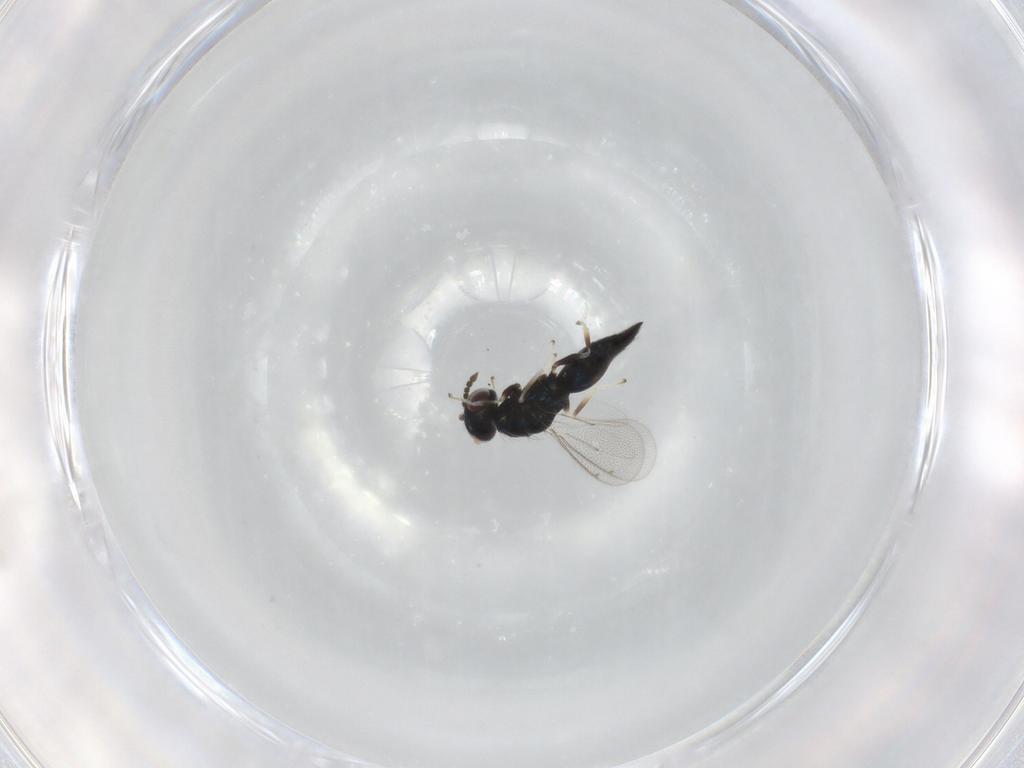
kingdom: Animalia
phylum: Arthropoda
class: Insecta
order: Hymenoptera
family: Eulophidae
